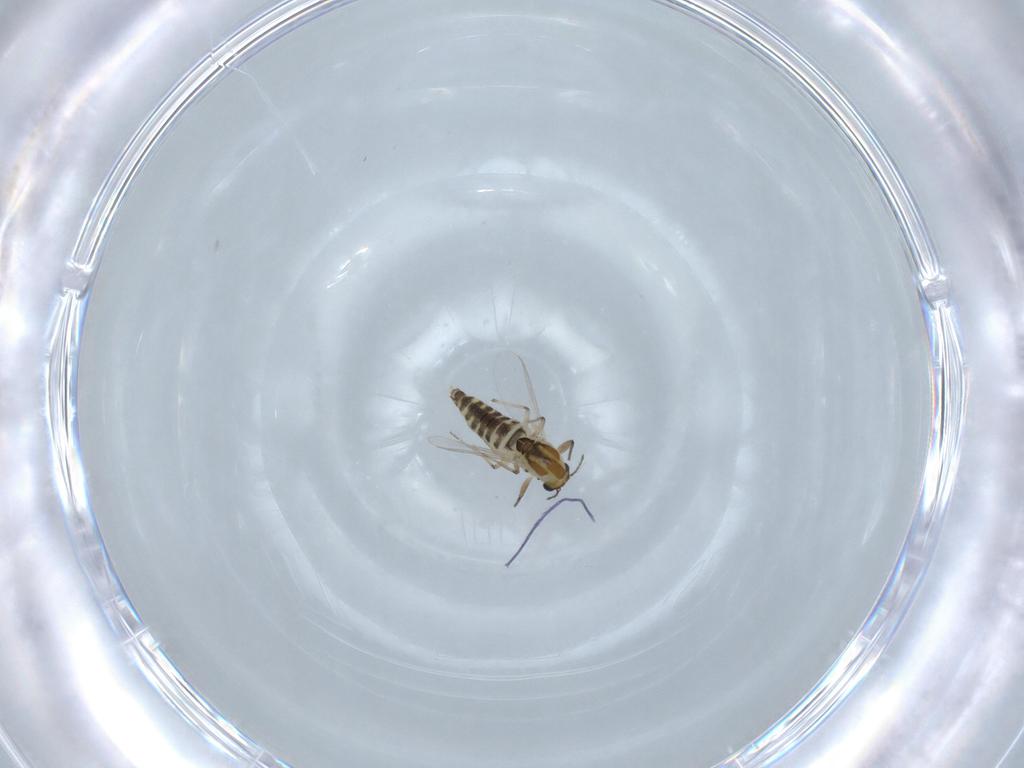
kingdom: Animalia
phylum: Arthropoda
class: Insecta
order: Diptera
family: Chironomidae
